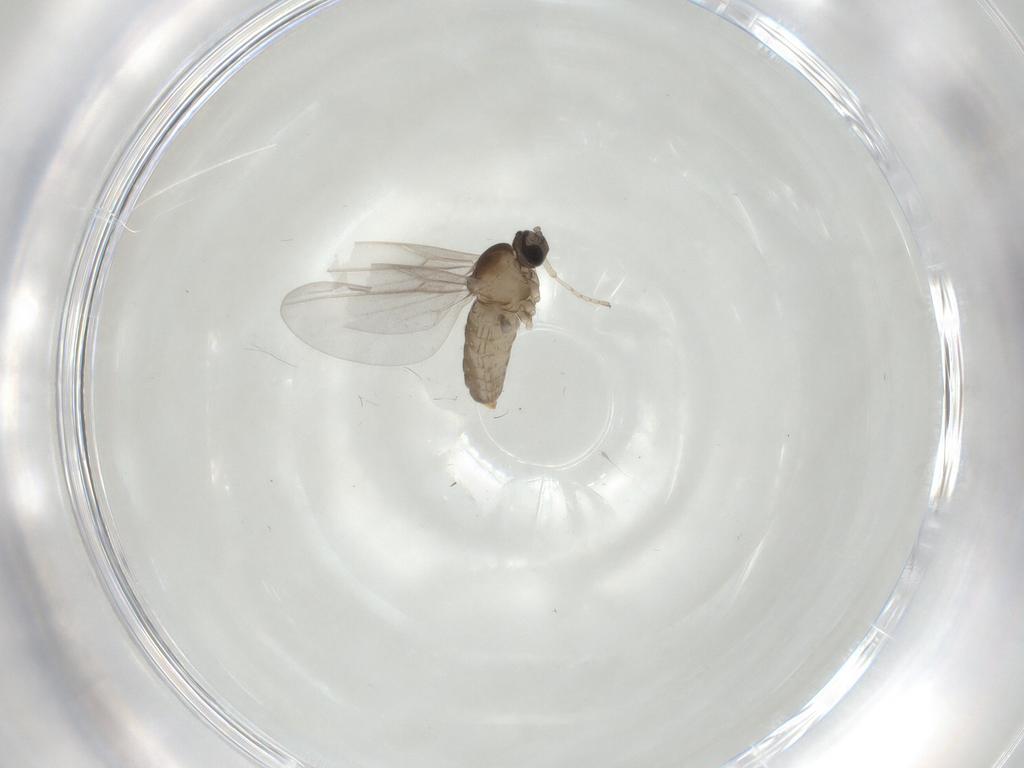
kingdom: Animalia
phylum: Arthropoda
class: Insecta
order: Diptera
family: Cecidomyiidae
